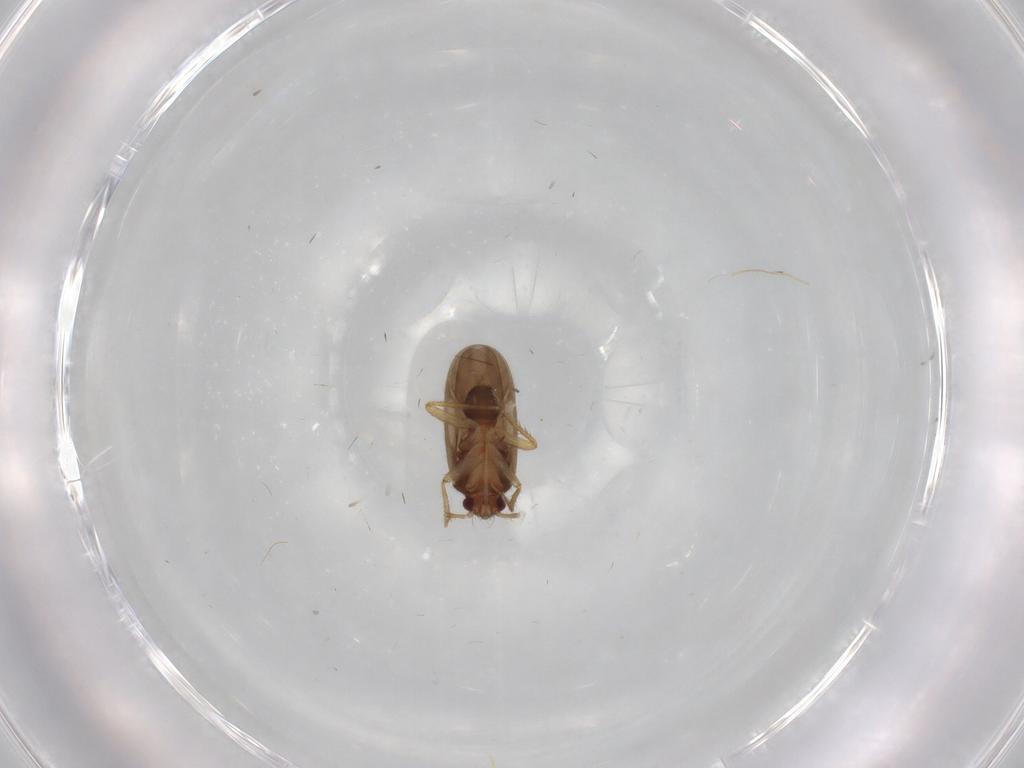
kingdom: Animalia
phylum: Arthropoda
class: Insecta
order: Hemiptera
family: Ceratocombidae
